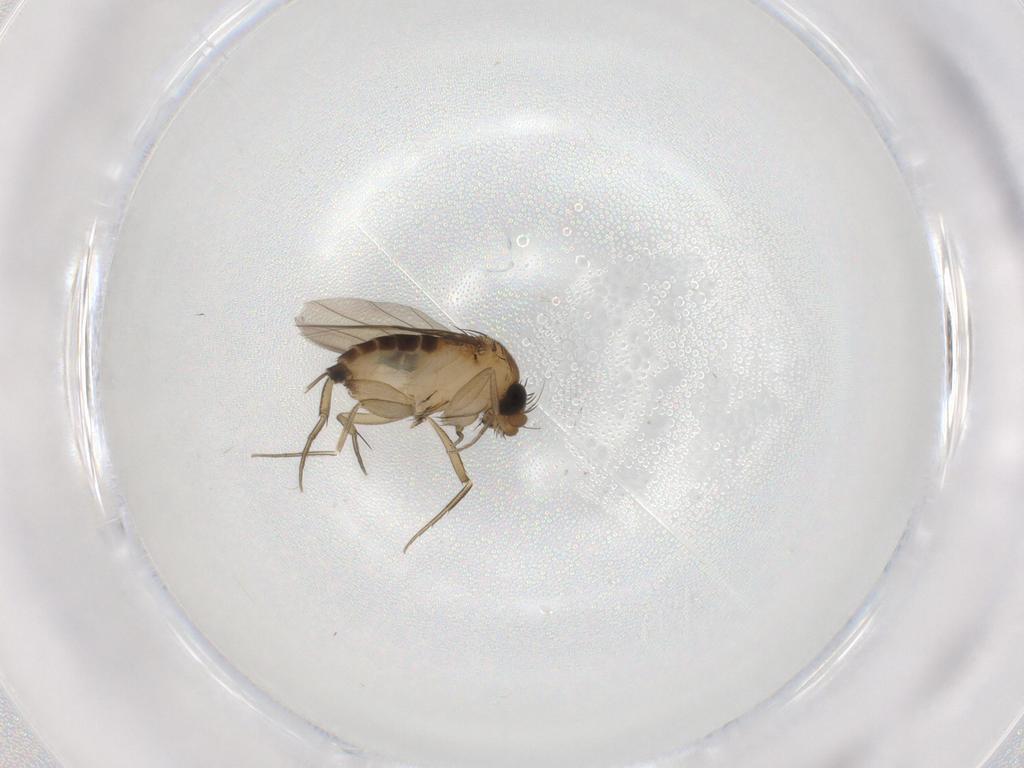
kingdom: Animalia
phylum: Arthropoda
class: Insecta
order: Diptera
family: Phoridae
